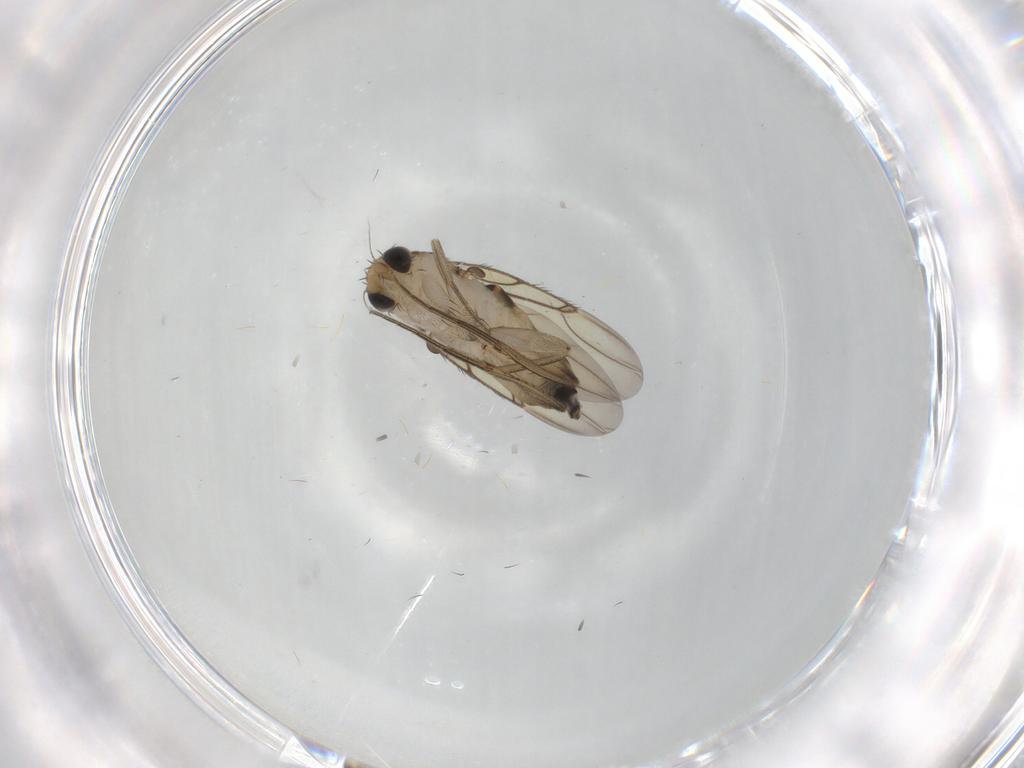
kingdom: Animalia
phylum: Arthropoda
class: Insecta
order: Diptera
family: Phoridae
